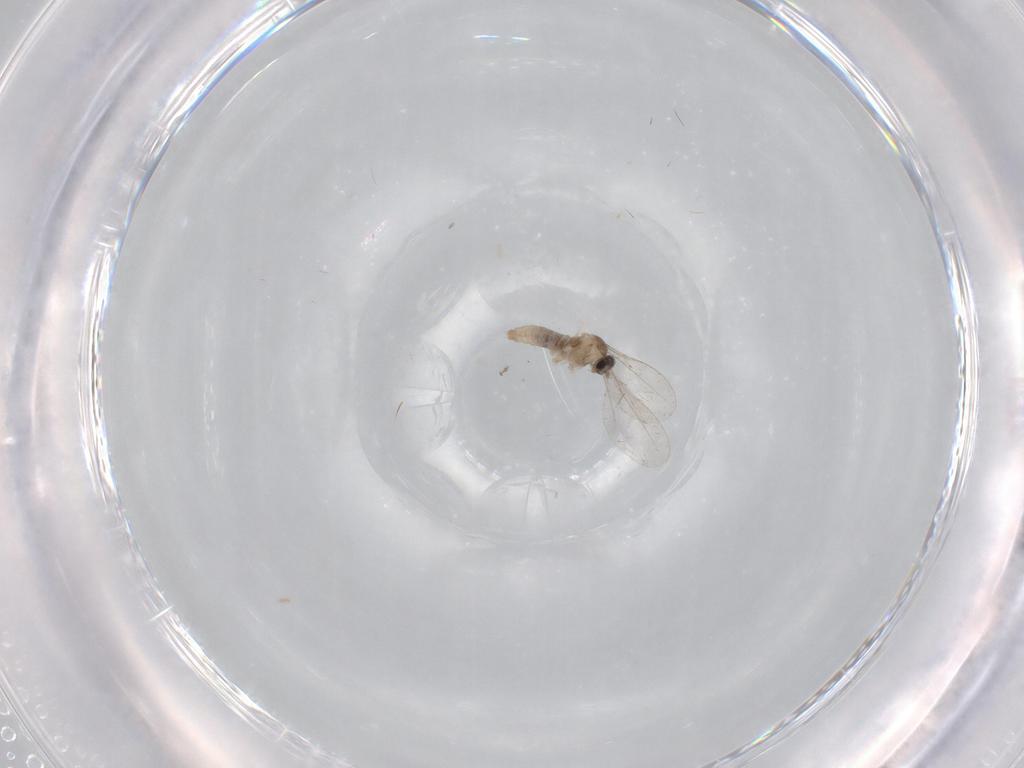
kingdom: Animalia
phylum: Arthropoda
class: Insecta
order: Diptera
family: Cecidomyiidae
